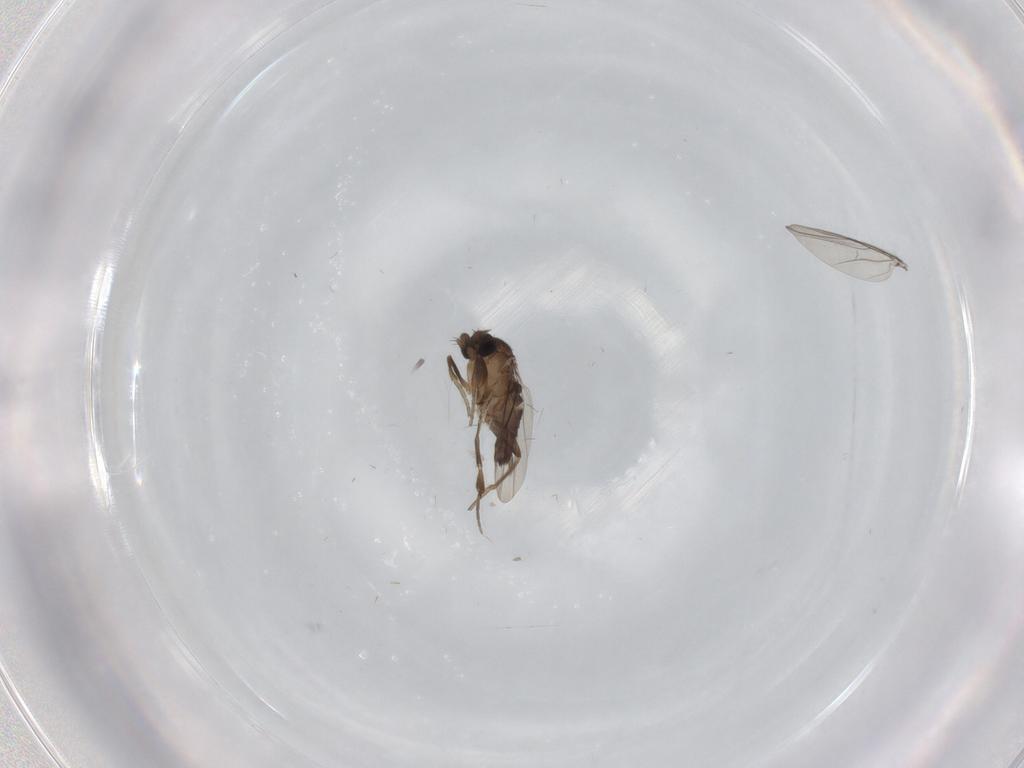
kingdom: Animalia
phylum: Arthropoda
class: Insecta
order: Diptera
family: Phoridae
